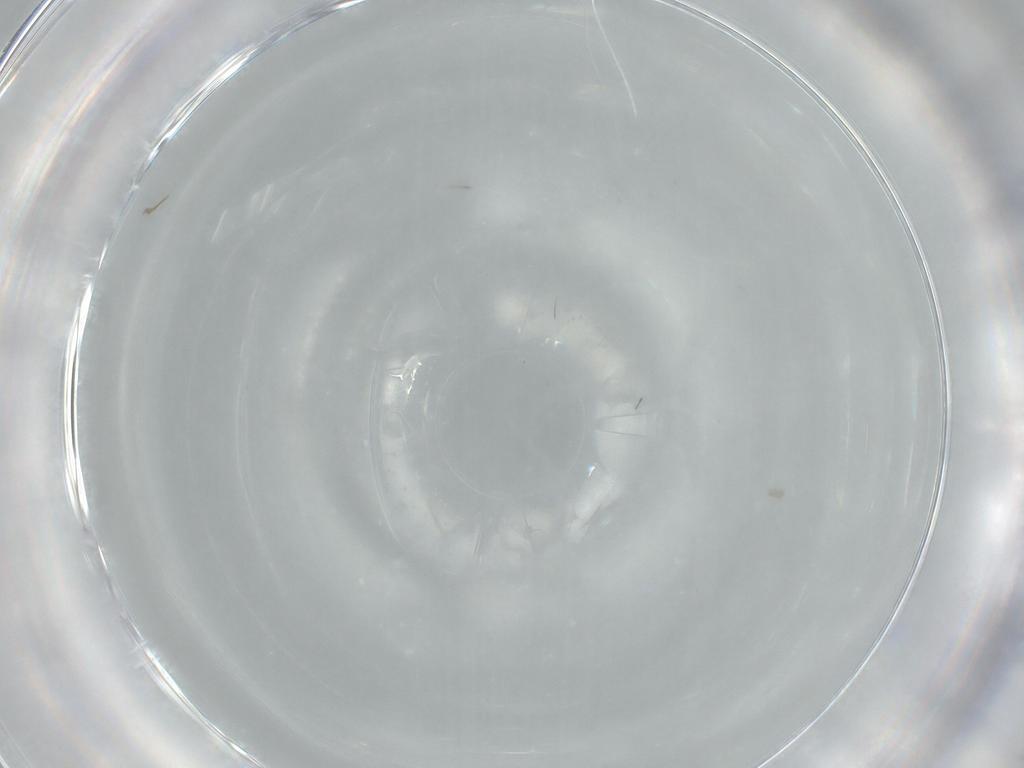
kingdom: Animalia
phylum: Arthropoda
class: Insecta
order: Diptera
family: Cecidomyiidae
